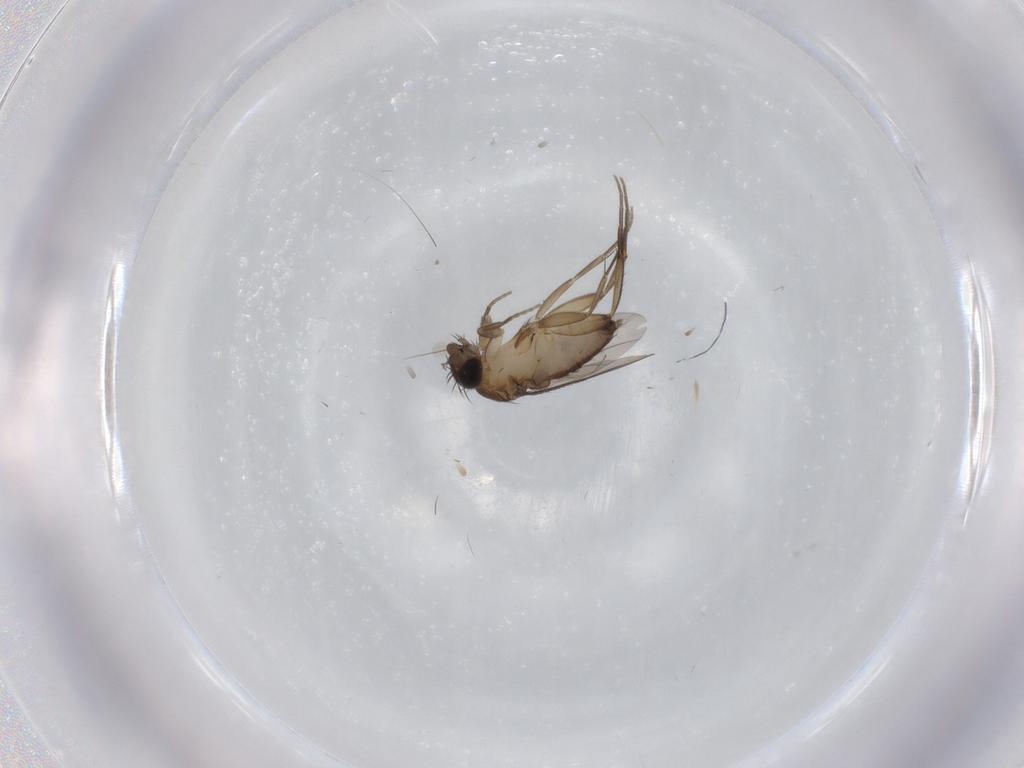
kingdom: Animalia
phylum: Arthropoda
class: Insecta
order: Diptera
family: Phoridae
